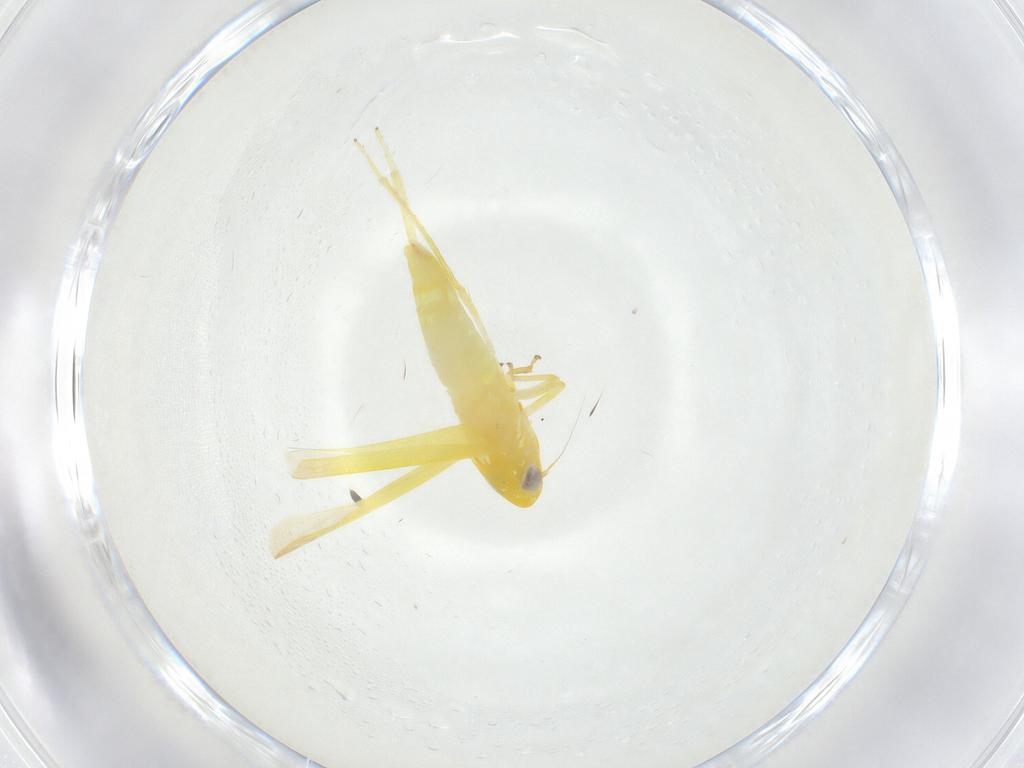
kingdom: Animalia
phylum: Arthropoda
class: Insecta
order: Hemiptera
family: Cicadellidae
